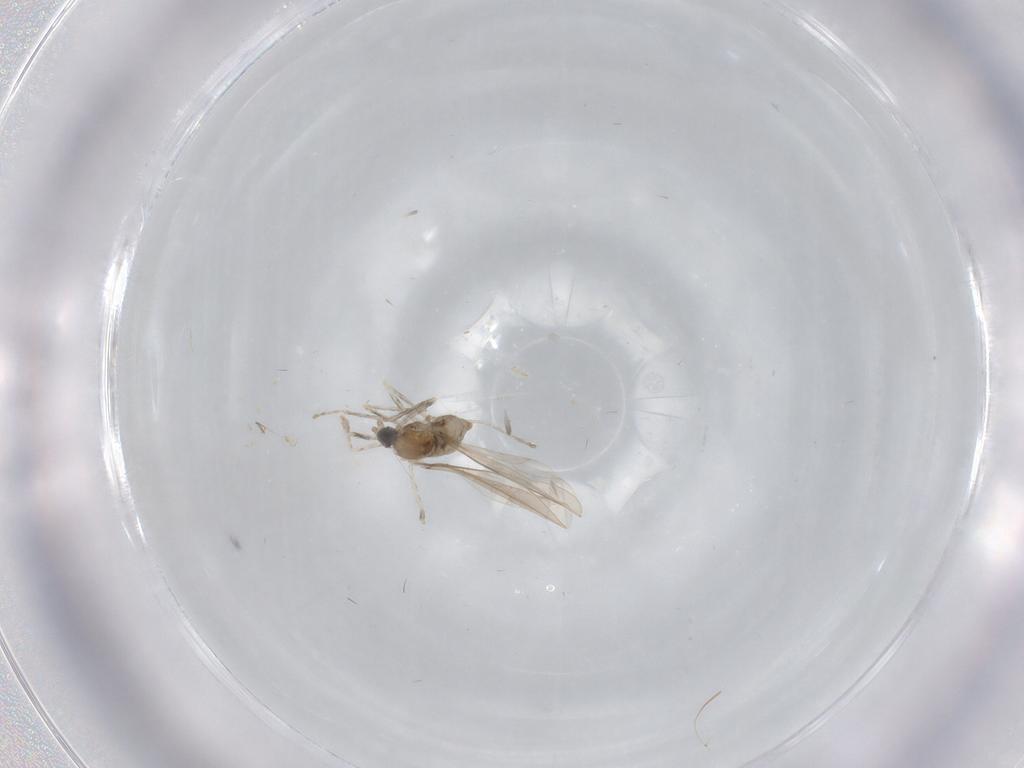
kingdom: Animalia
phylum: Arthropoda
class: Insecta
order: Diptera
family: Cecidomyiidae
